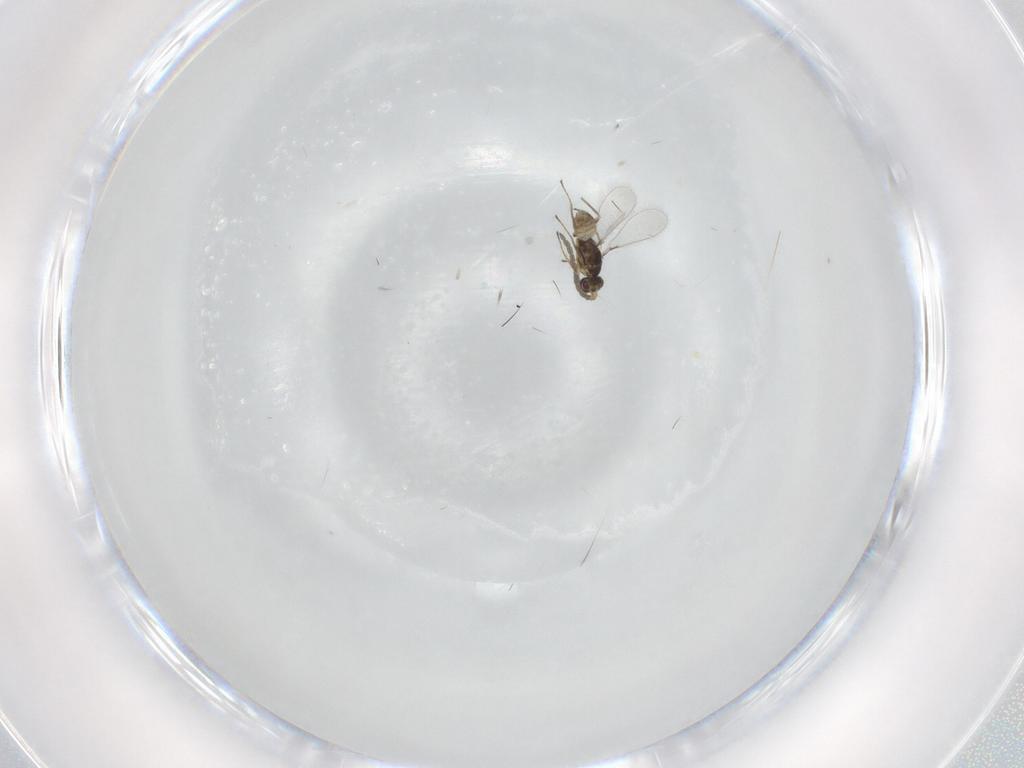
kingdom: Animalia
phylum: Arthropoda
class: Insecta
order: Hymenoptera
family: Mymaridae
